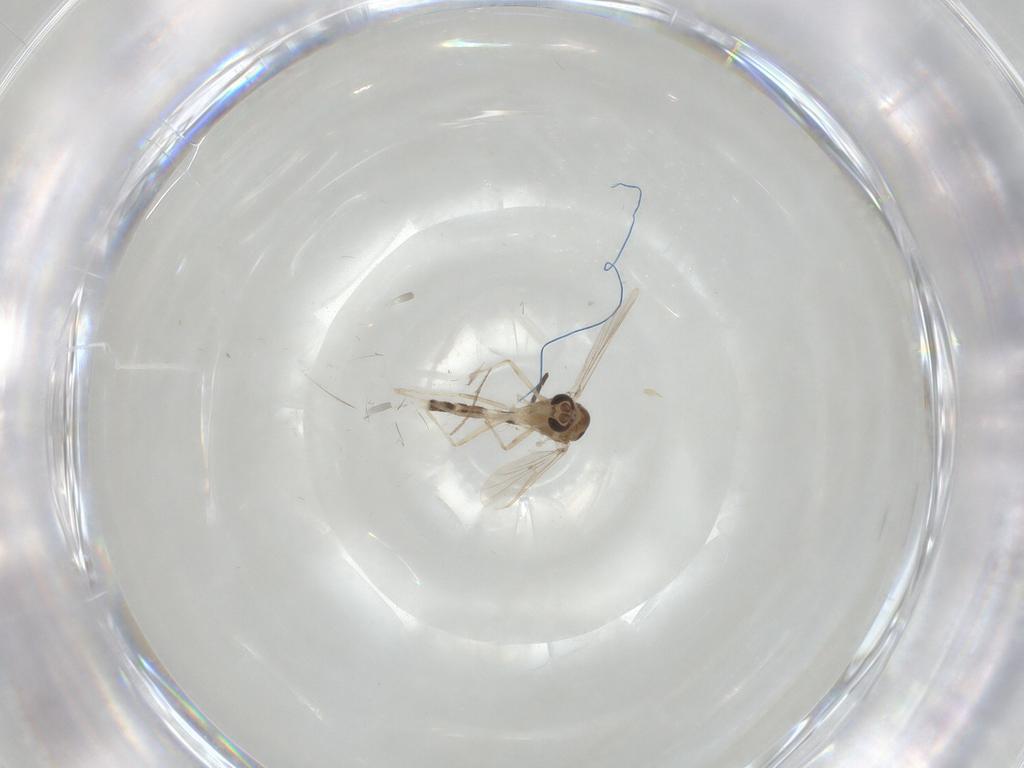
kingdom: Animalia
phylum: Arthropoda
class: Insecta
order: Diptera
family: Sciaridae
